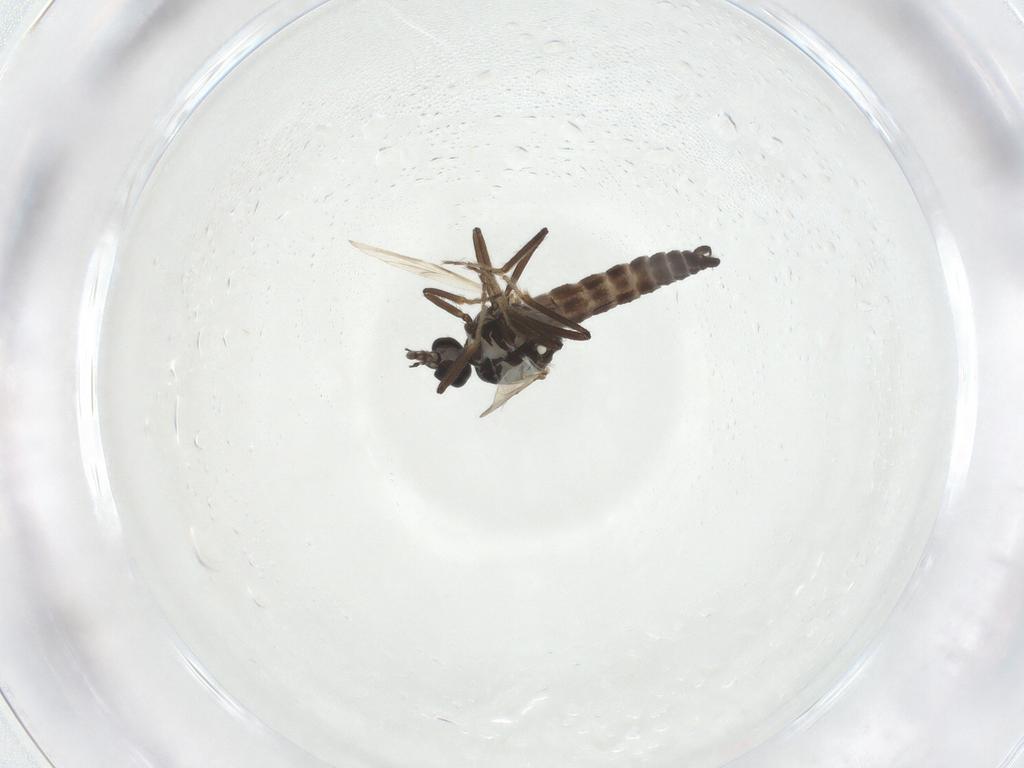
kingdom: Animalia
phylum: Arthropoda
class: Insecta
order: Diptera
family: Ceratopogonidae
